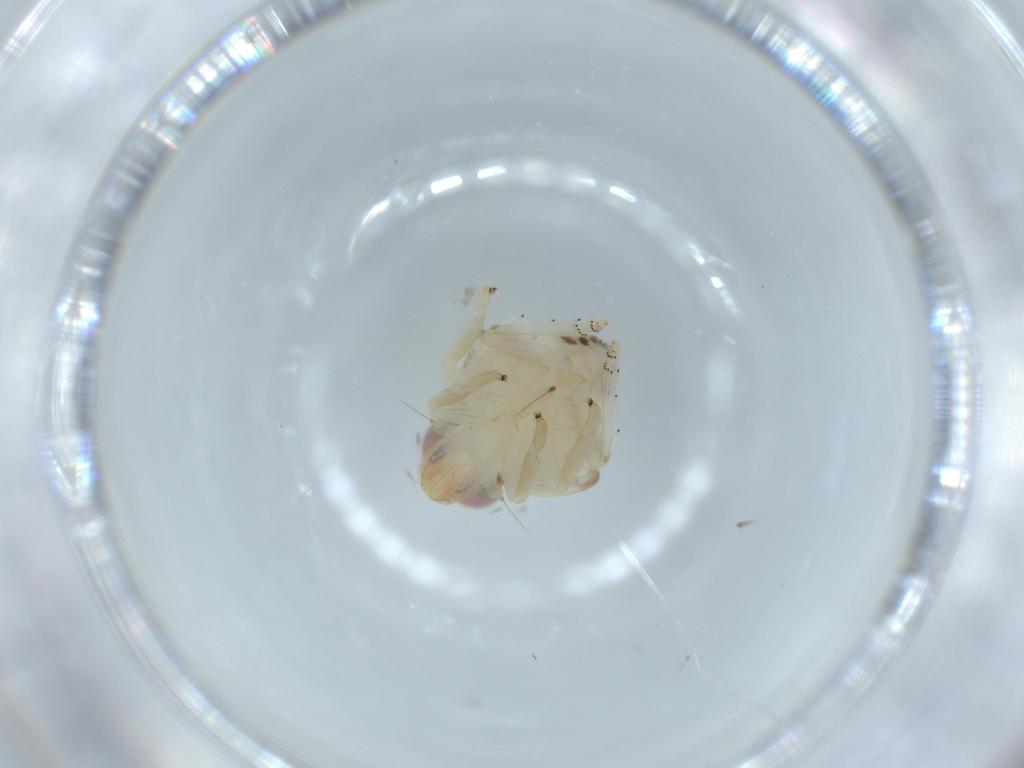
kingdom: Animalia
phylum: Arthropoda
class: Insecta
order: Hemiptera
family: Nogodinidae
